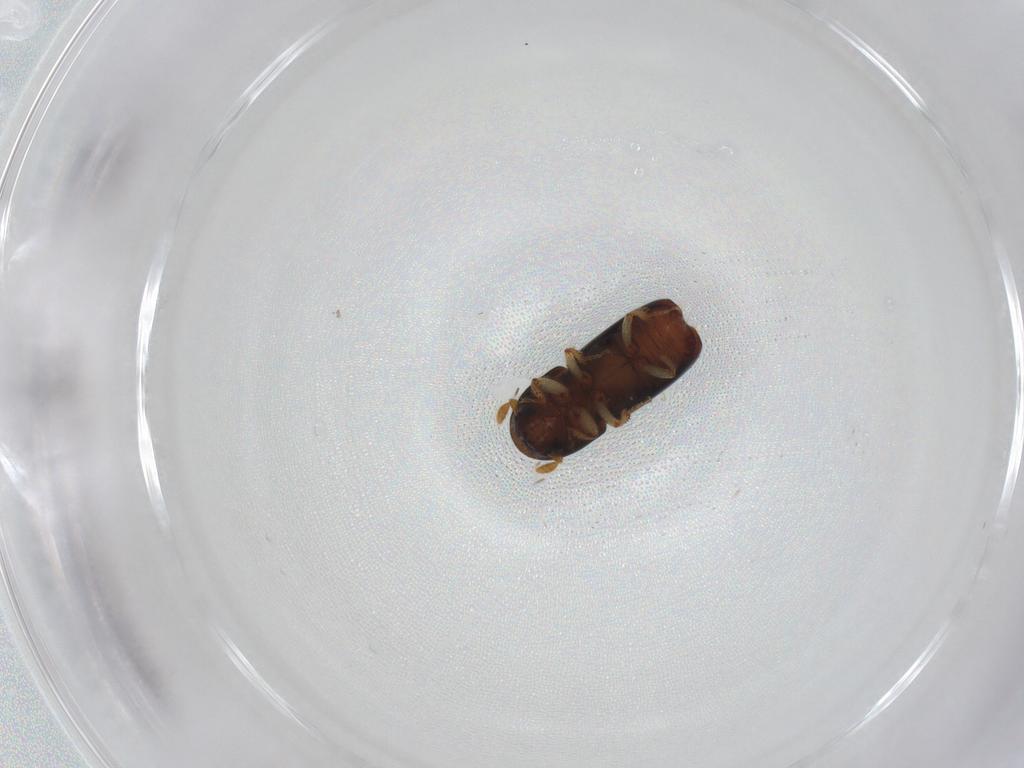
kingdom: Animalia
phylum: Arthropoda
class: Insecta
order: Coleoptera
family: Curculionidae
